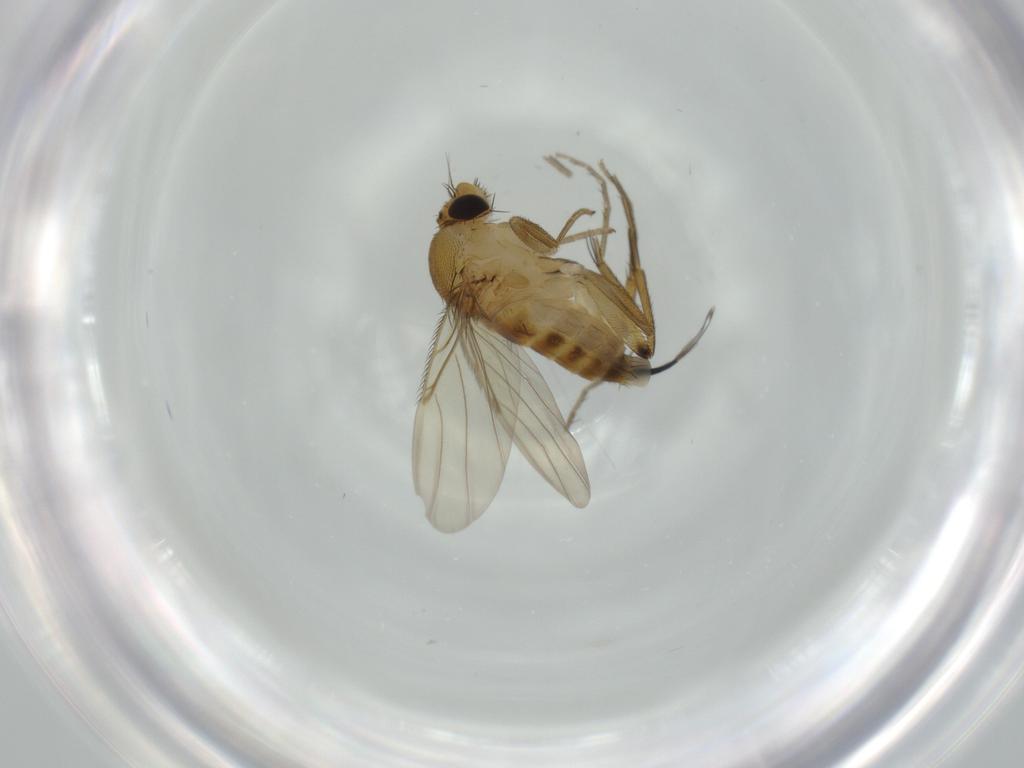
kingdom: Animalia
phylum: Arthropoda
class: Insecta
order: Diptera
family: Phoridae
